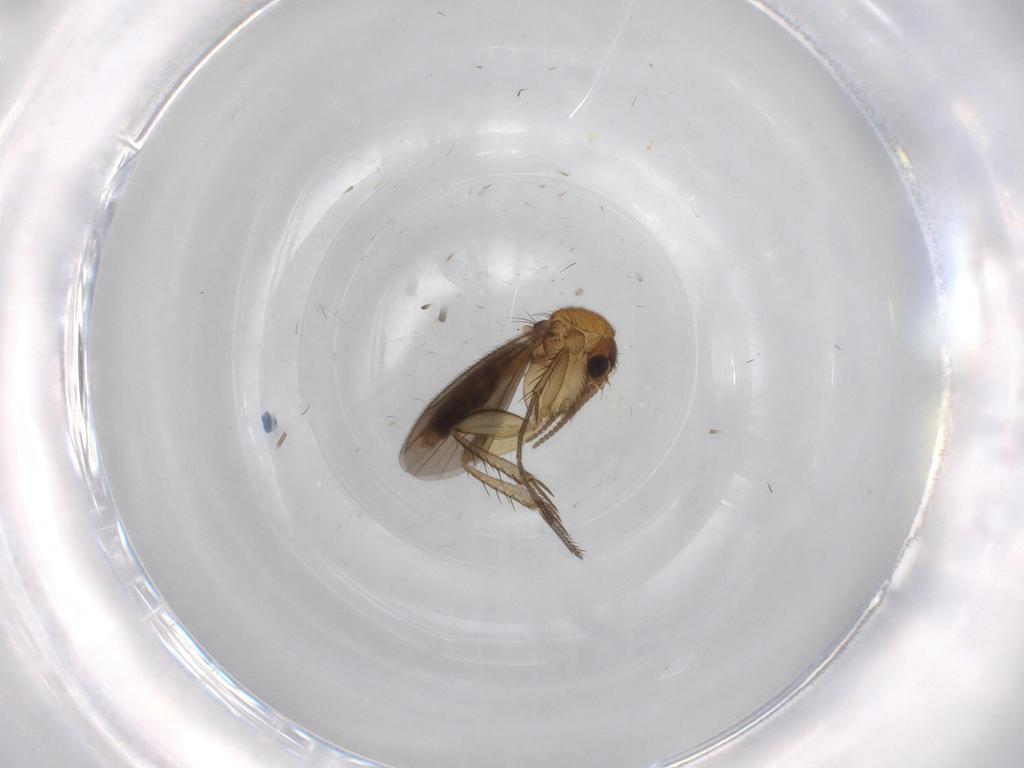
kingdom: Animalia
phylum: Arthropoda
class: Insecta
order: Diptera
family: Mycetophilidae
